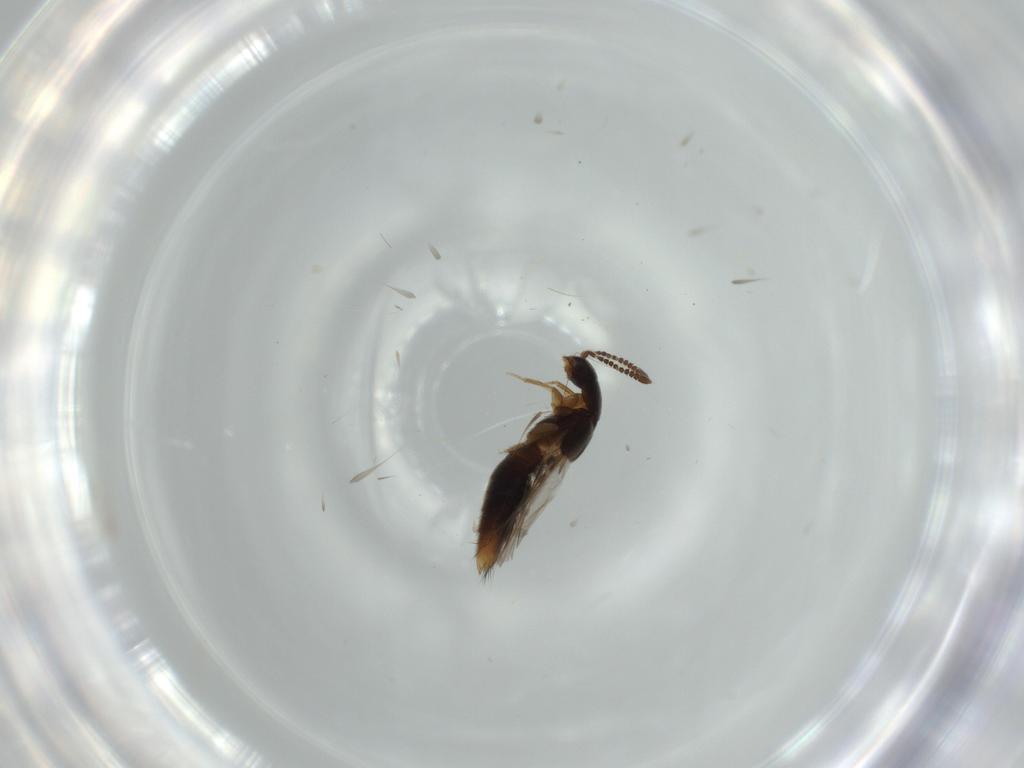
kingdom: Animalia
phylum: Arthropoda
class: Insecta
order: Coleoptera
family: Staphylinidae
